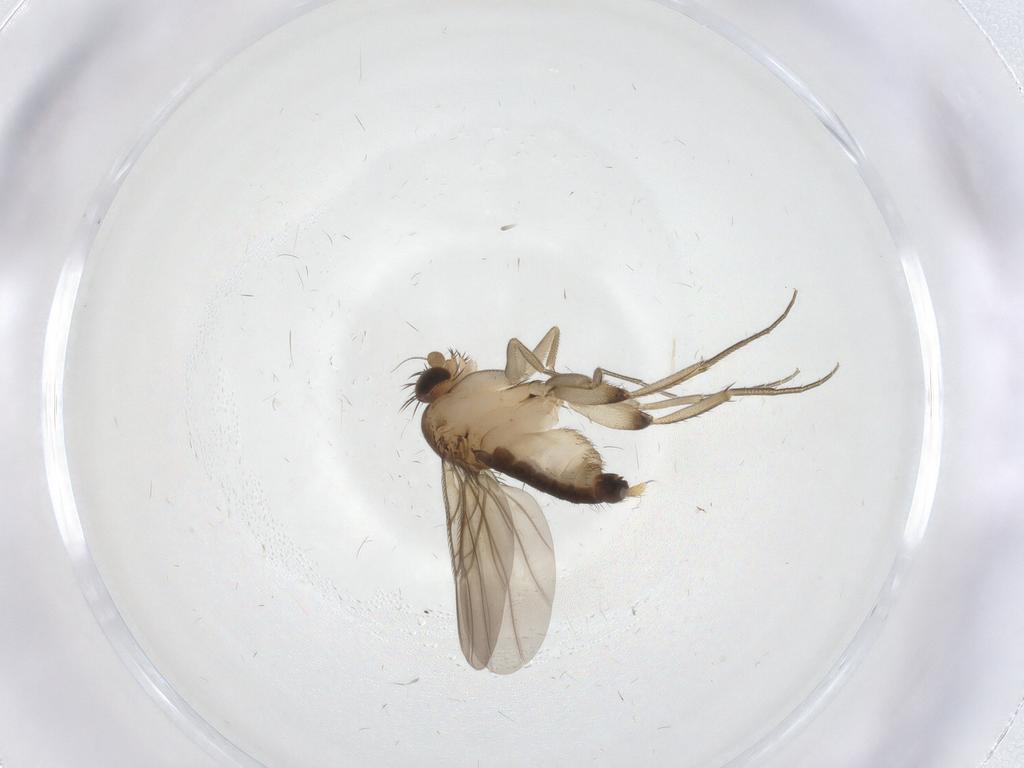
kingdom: Animalia
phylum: Arthropoda
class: Insecta
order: Diptera
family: Phoridae
